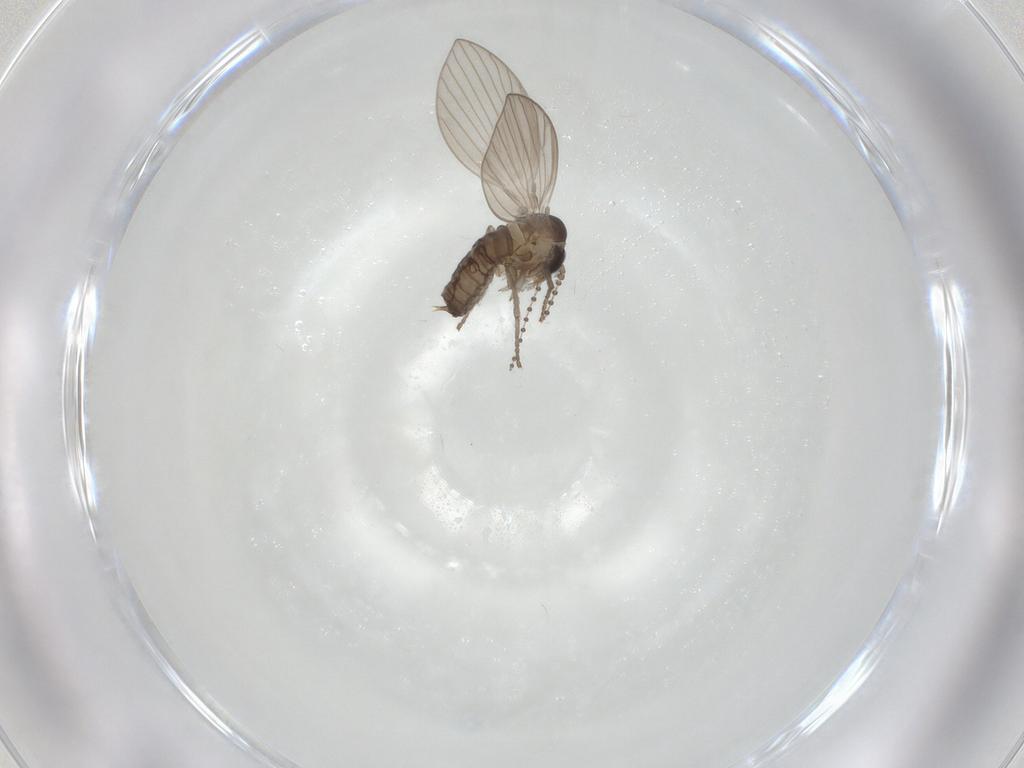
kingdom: Animalia
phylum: Arthropoda
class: Insecta
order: Diptera
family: Psychodidae
